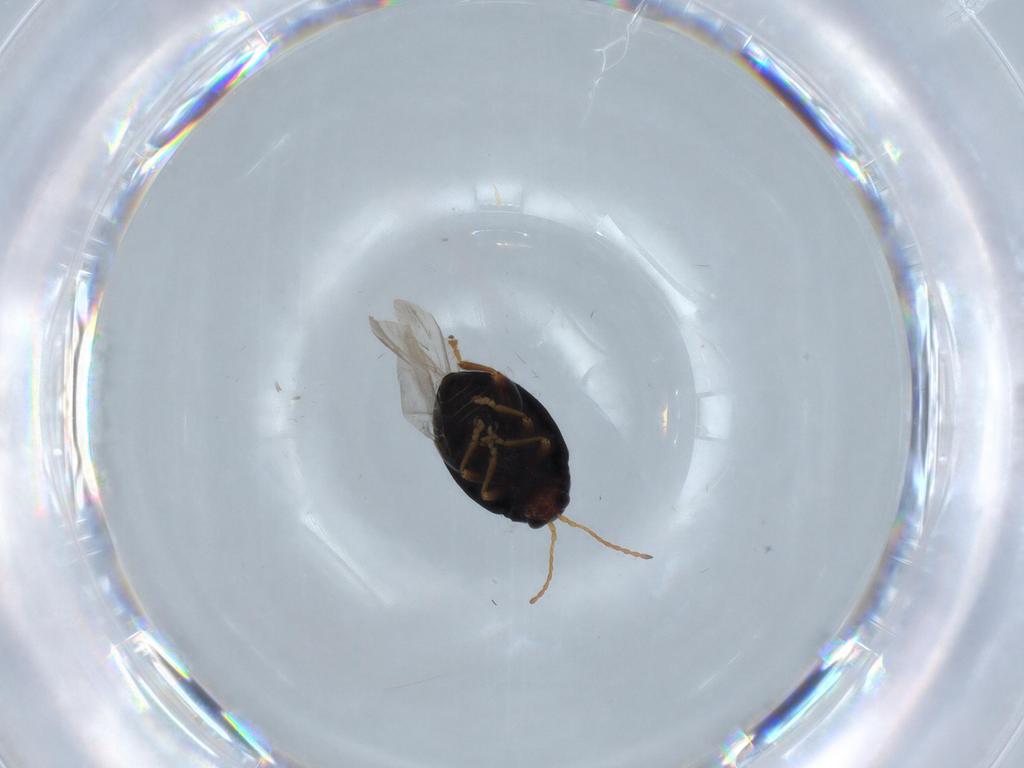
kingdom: Animalia
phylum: Arthropoda
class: Insecta
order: Coleoptera
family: Chrysomelidae
